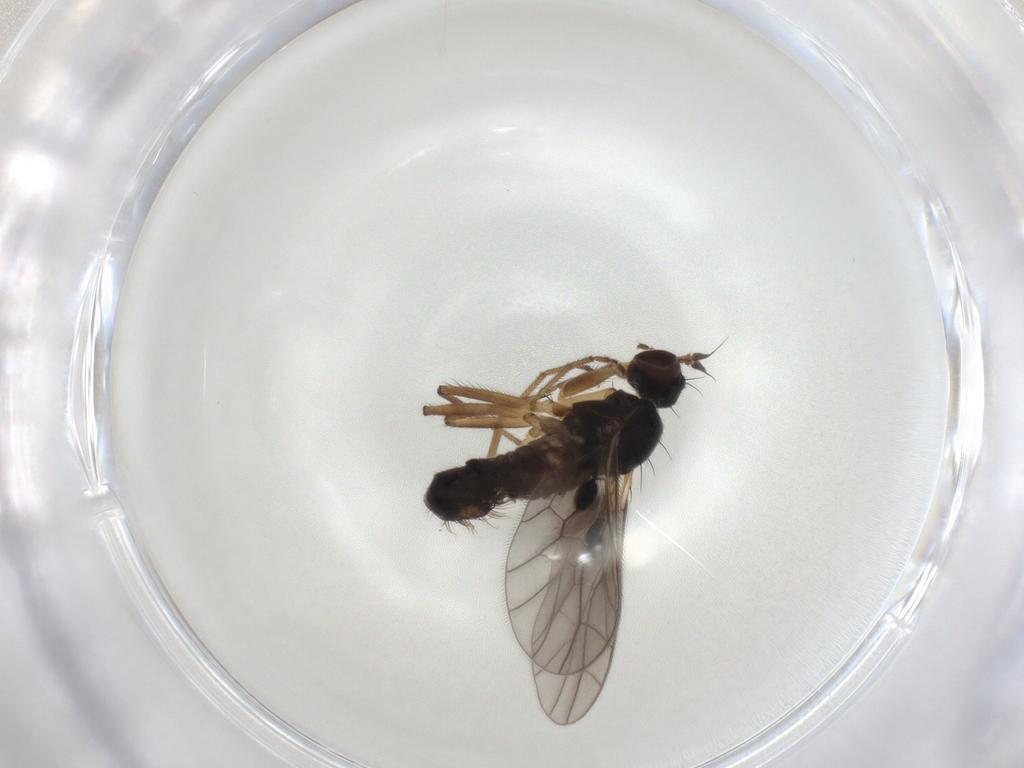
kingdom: Animalia
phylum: Arthropoda
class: Insecta
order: Diptera
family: Empididae
